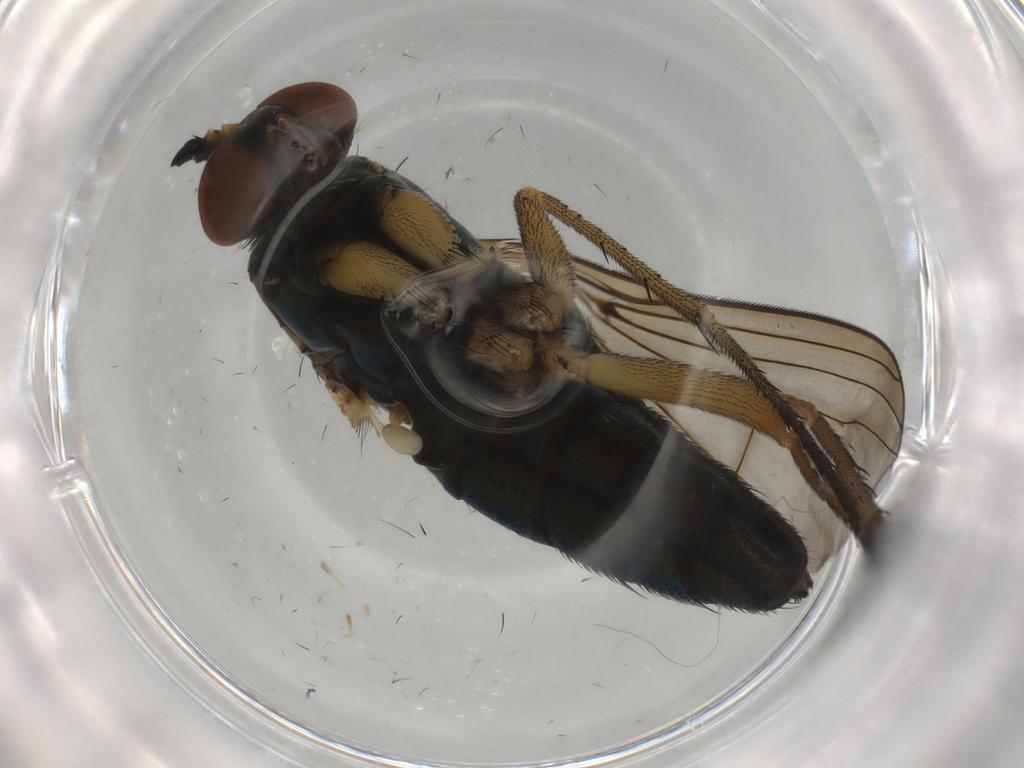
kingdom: Animalia
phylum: Arthropoda
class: Insecta
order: Diptera
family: Dolichopodidae
